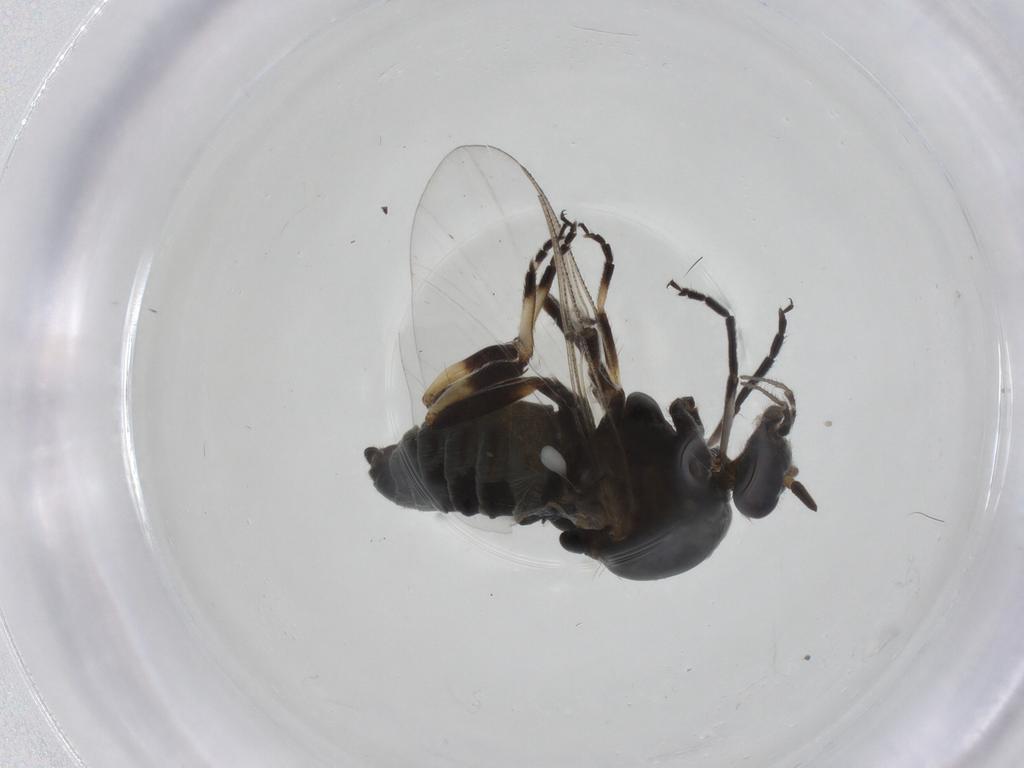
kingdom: Animalia
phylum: Arthropoda
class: Insecta
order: Diptera
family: Simuliidae
